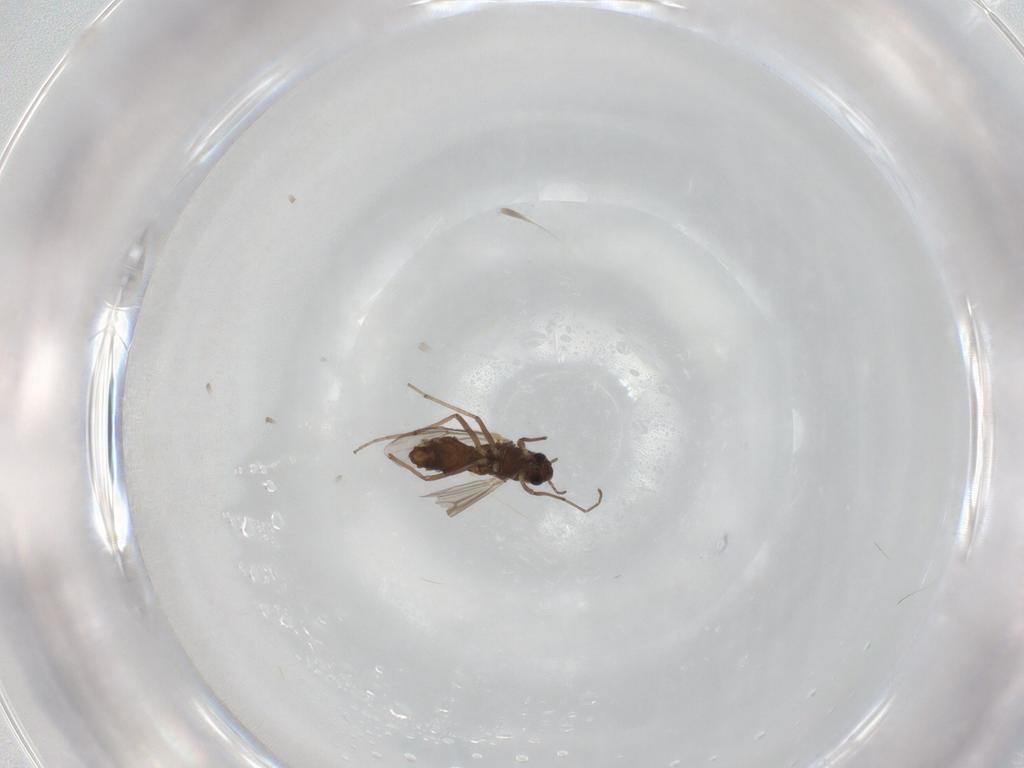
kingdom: Animalia
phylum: Arthropoda
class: Insecta
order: Diptera
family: Chironomidae
